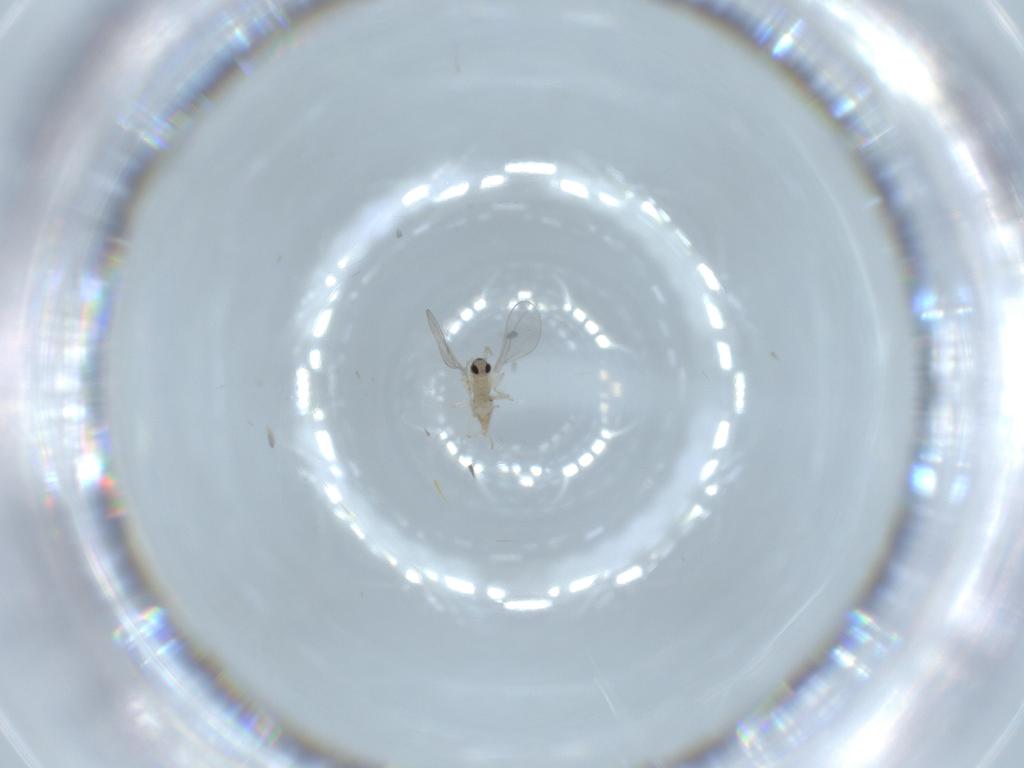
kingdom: Animalia
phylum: Arthropoda
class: Insecta
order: Diptera
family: Cecidomyiidae
